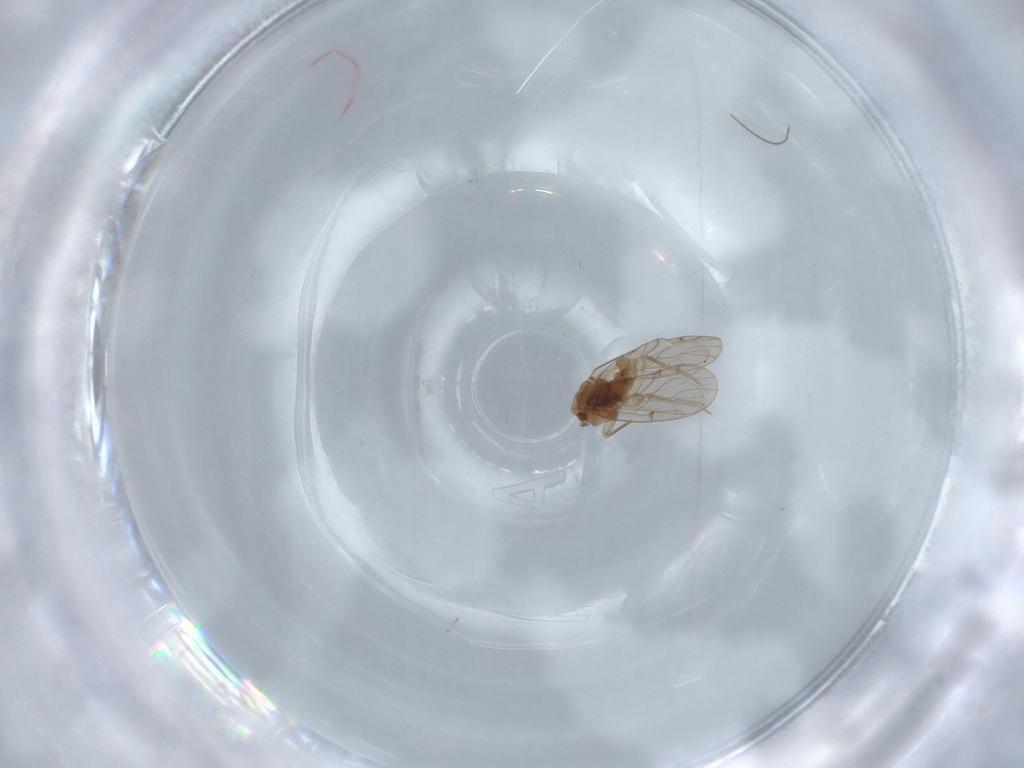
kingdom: Animalia
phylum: Arthropoda
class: Insecta
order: Psocodea
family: Ectopsocidae
